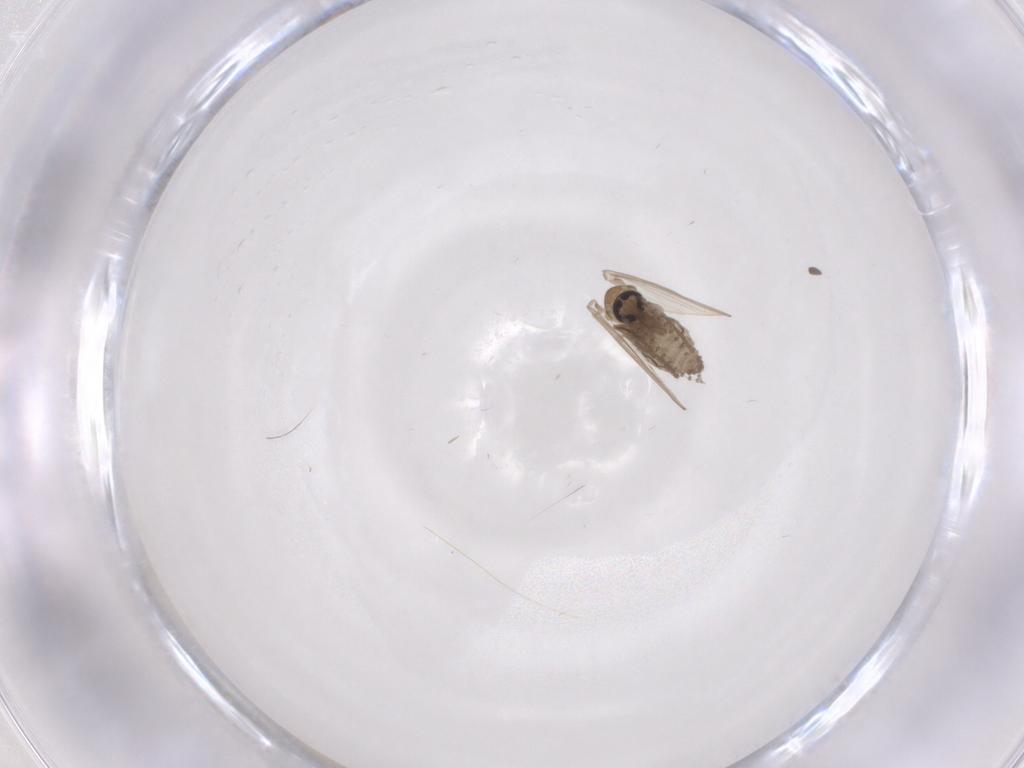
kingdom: Animalia
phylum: Arthropoda
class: Insecta
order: Diptera
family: Psychodidae
